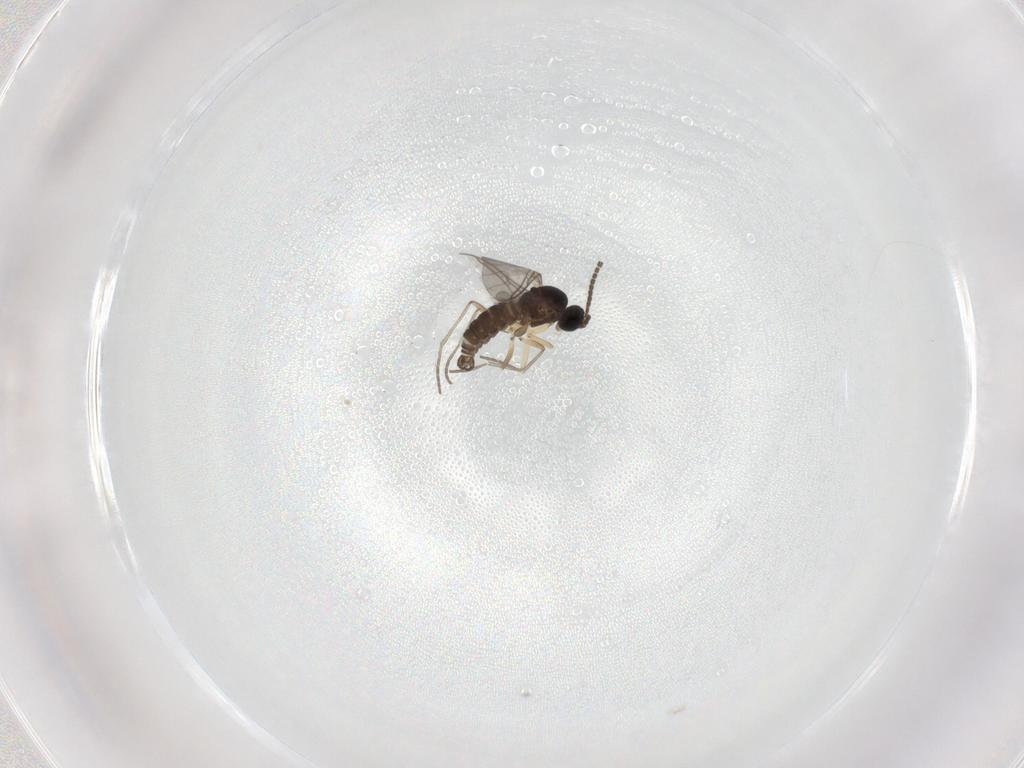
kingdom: Animalia
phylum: Arthropoda
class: Insecta
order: Diptera
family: Sciaridae
